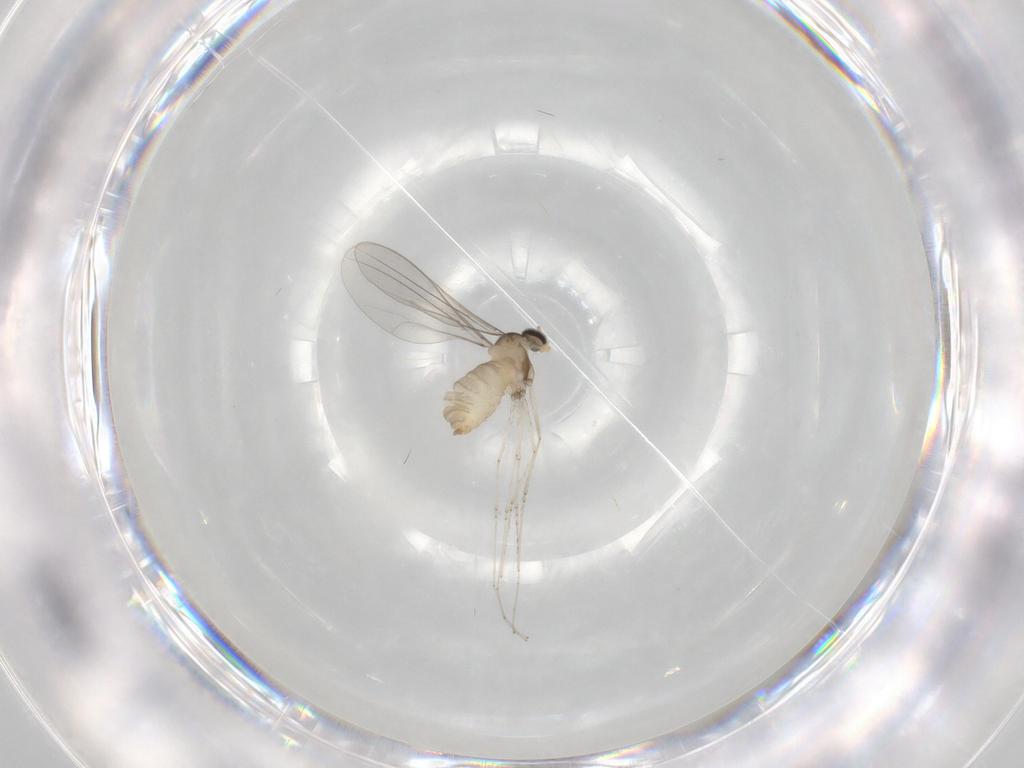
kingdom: Animalia
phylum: Arthropoda
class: Insecta
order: Diptera
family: Cecidomyiidae
